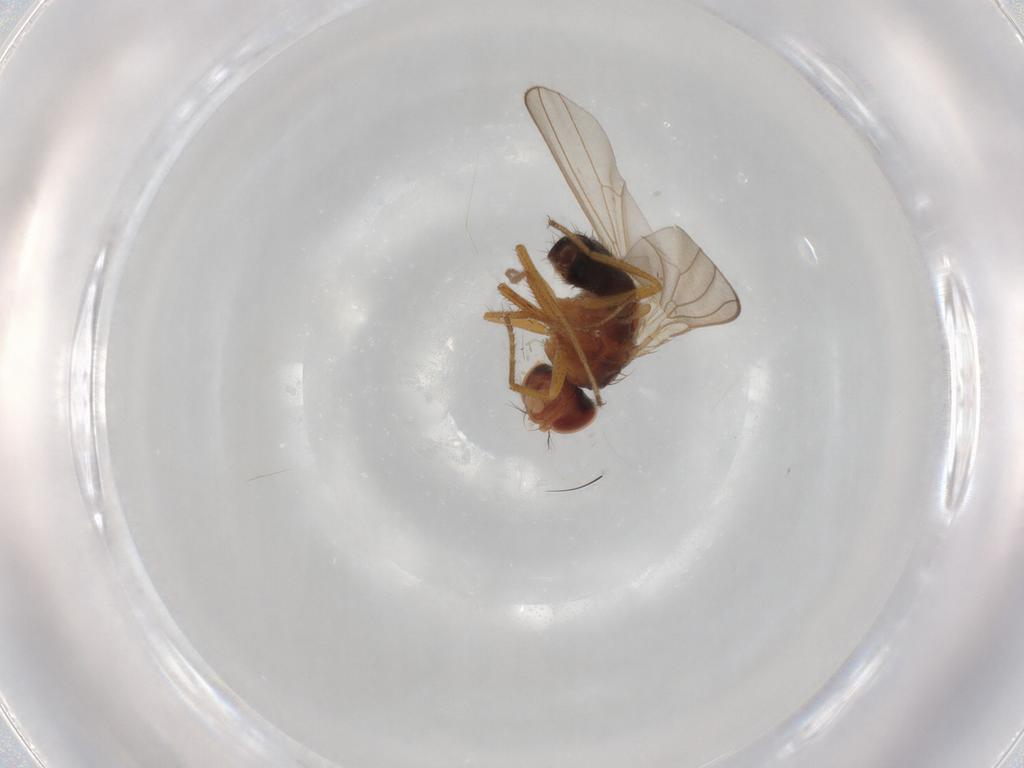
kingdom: Animalia
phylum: Arthropoda
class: Insecta
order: Diptera
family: Drosophilidae
